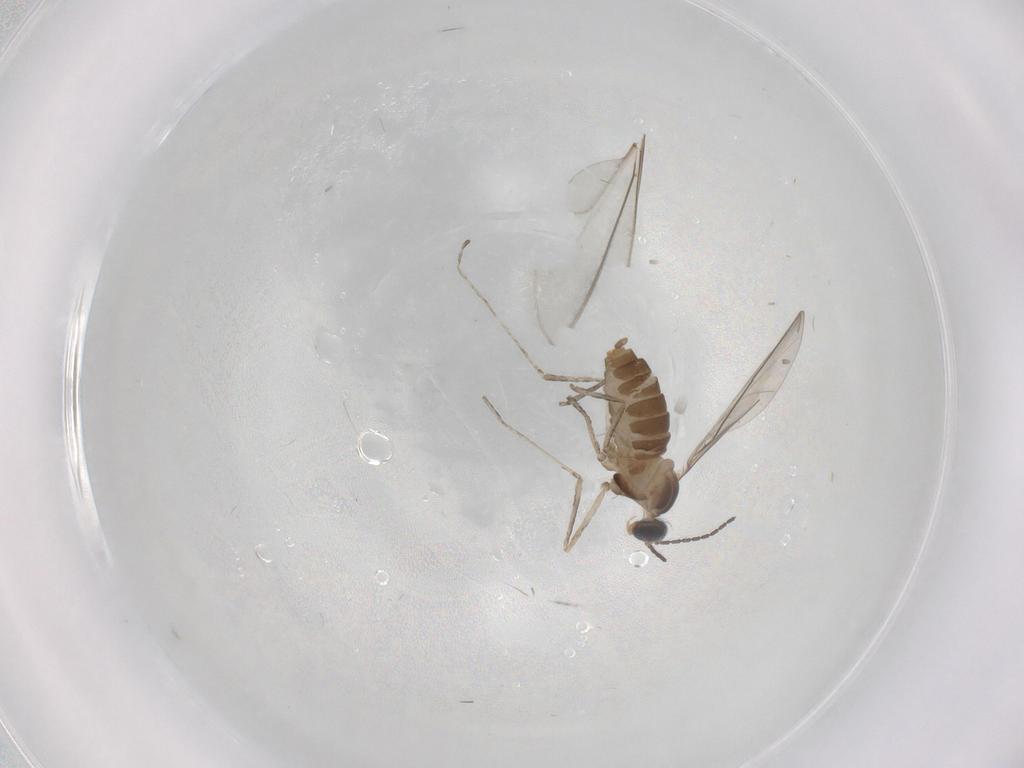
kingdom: Animalia
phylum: Arthropoda
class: Insecta
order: Diptera
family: Cecidomyiidae
